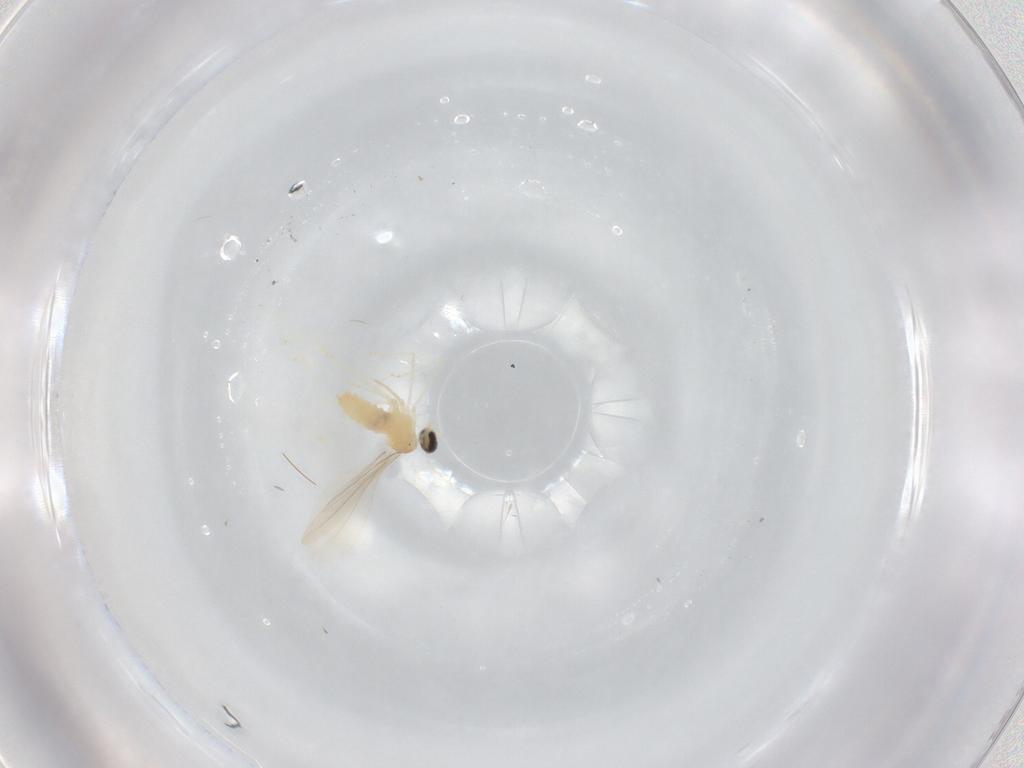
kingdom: Animalia
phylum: Arthropoda
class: Insecta
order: Diptera
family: Cecidomyiidae
